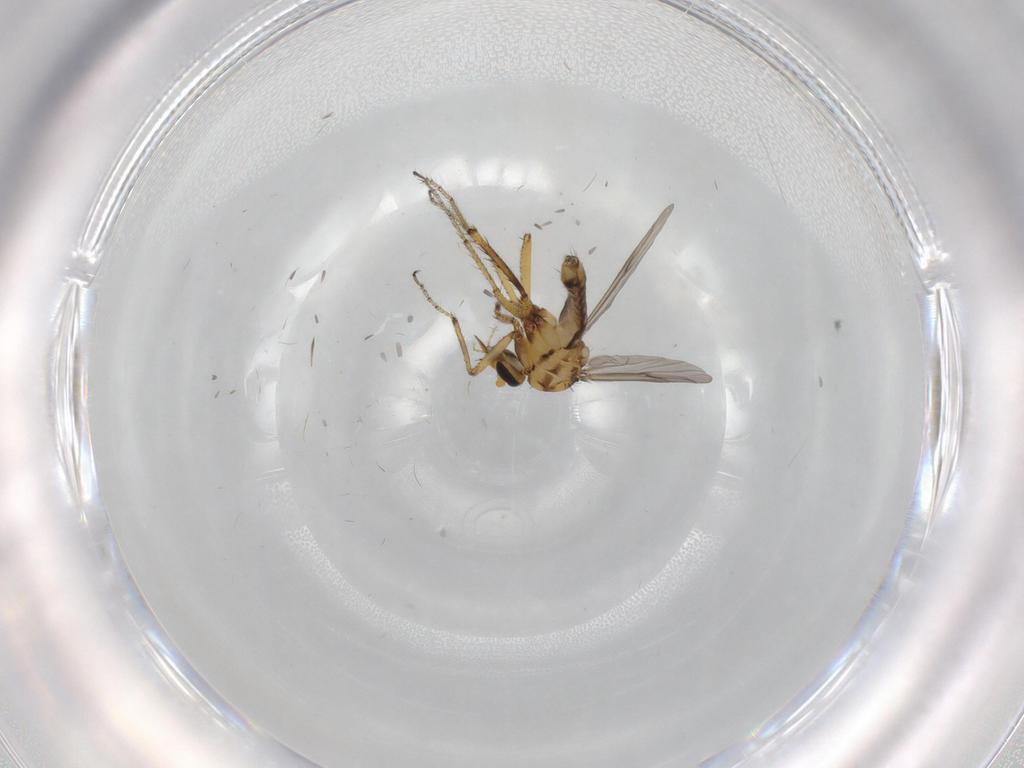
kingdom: Animalia
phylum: Arthropoda
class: Insecta
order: Diptera
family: Ceratopogonidae
